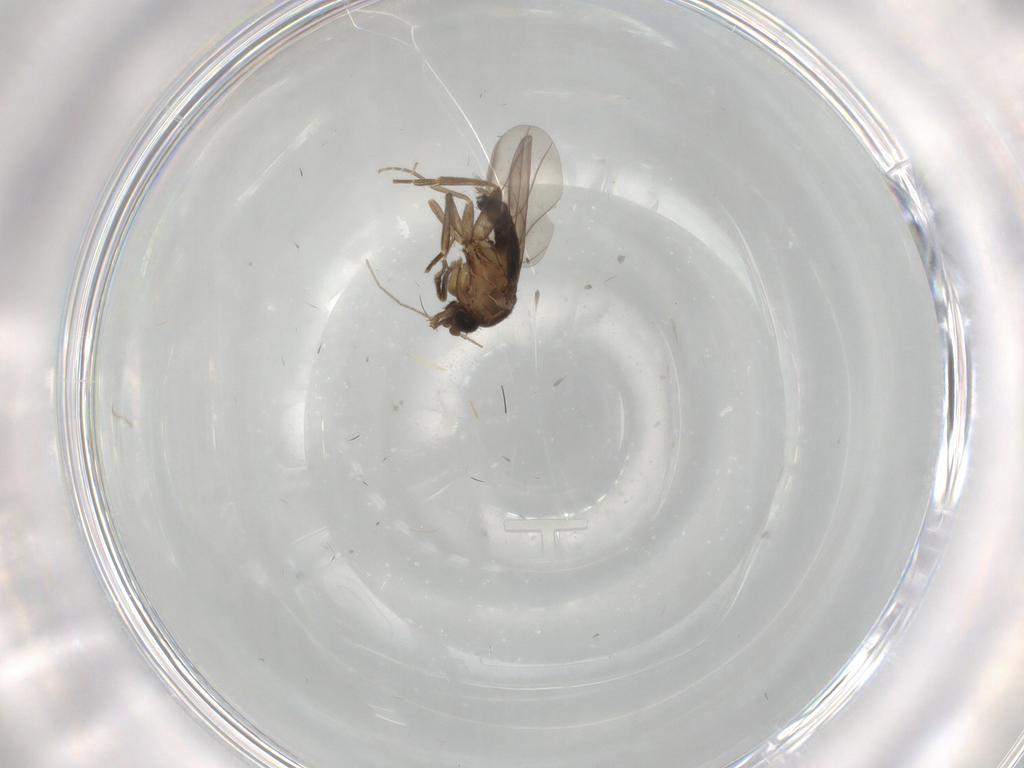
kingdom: Animalia
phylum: Arthropoda
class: Insecta
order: Diptera
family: Chironomidae
